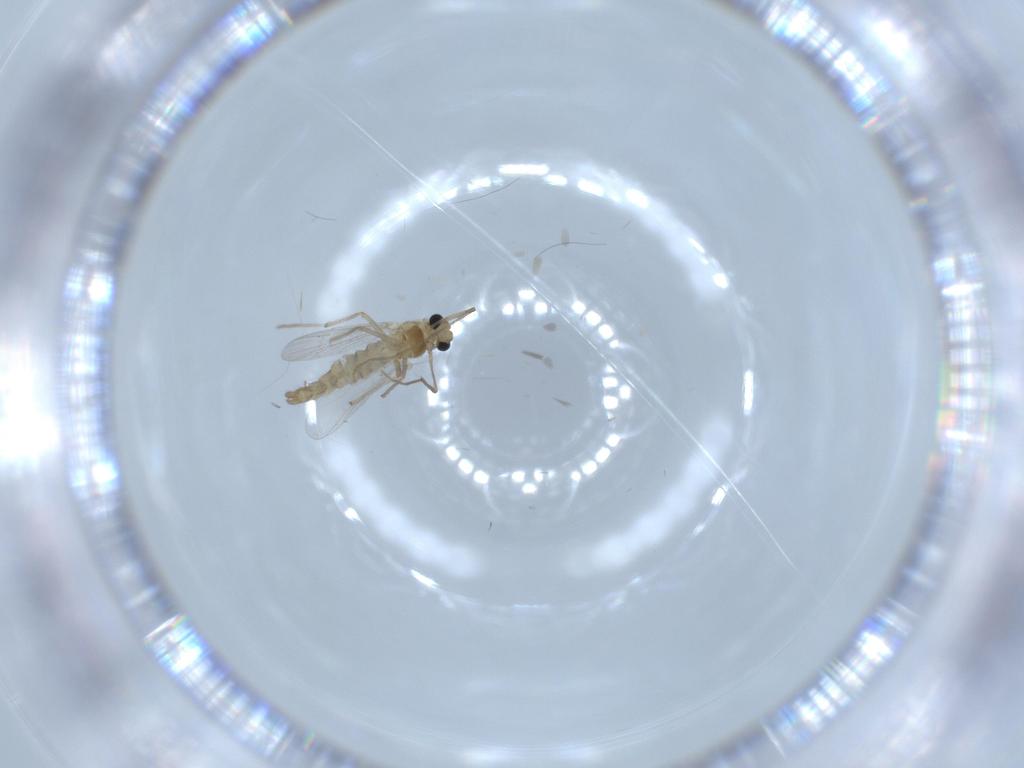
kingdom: Animalia
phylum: Arthropoda
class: Insecta
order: Diptera
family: Chironomidae
